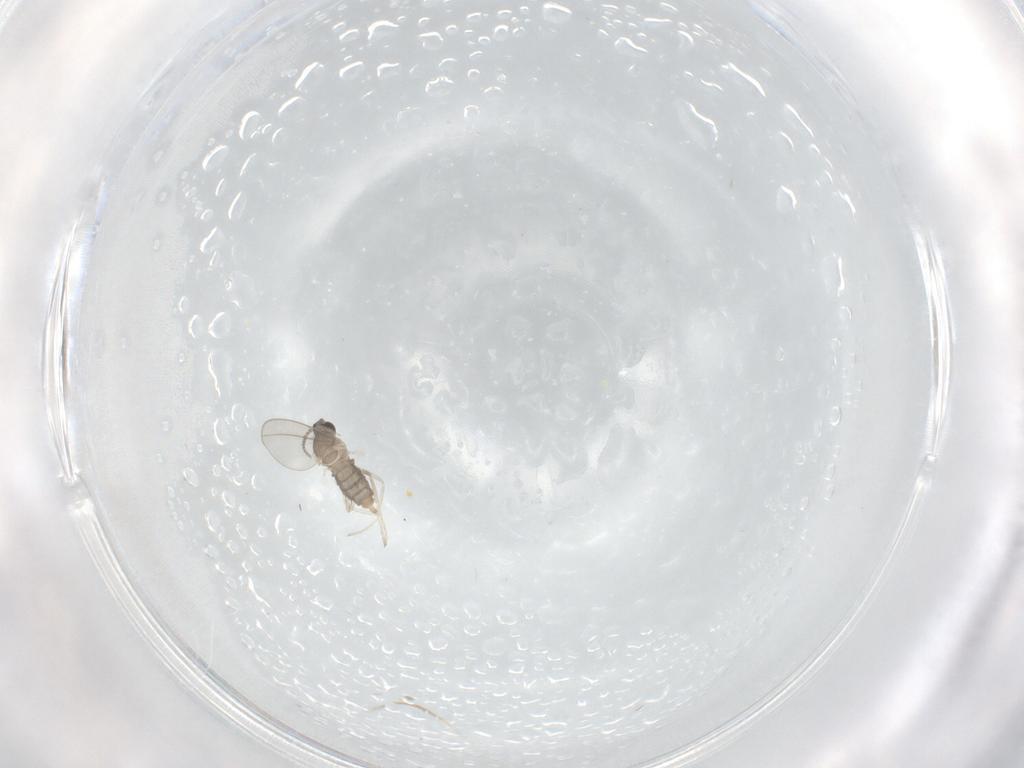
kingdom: Animalia
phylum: Arthropoda
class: Insecta
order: Diptera
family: Cecidomyiidae
